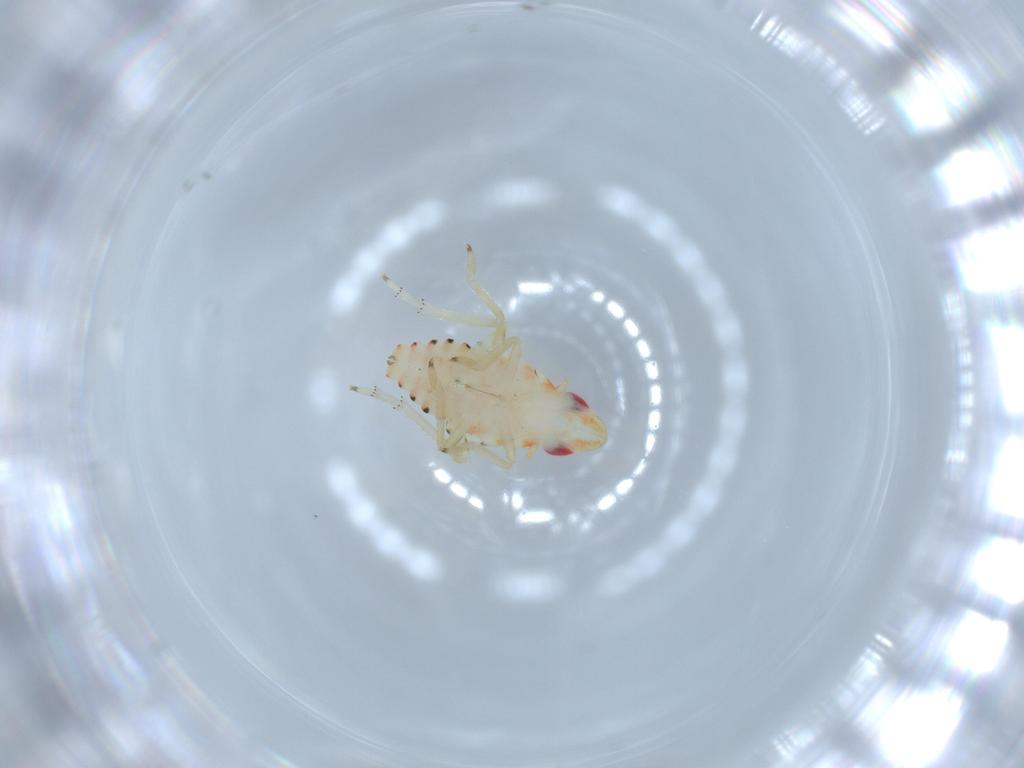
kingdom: Animalia
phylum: Arthropoda
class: Insecta
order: Hemiptera
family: Tropiduchidae
